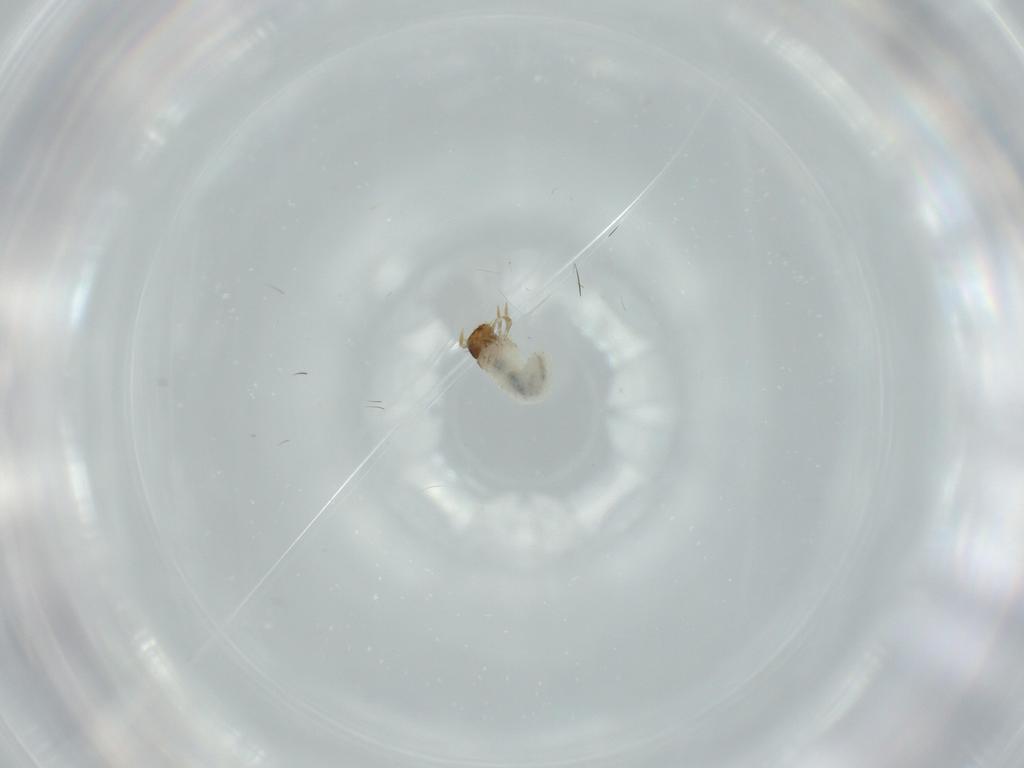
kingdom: Animalia
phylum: Arthropoda
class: Insecta
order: Diptera
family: Ceratopogonidae
